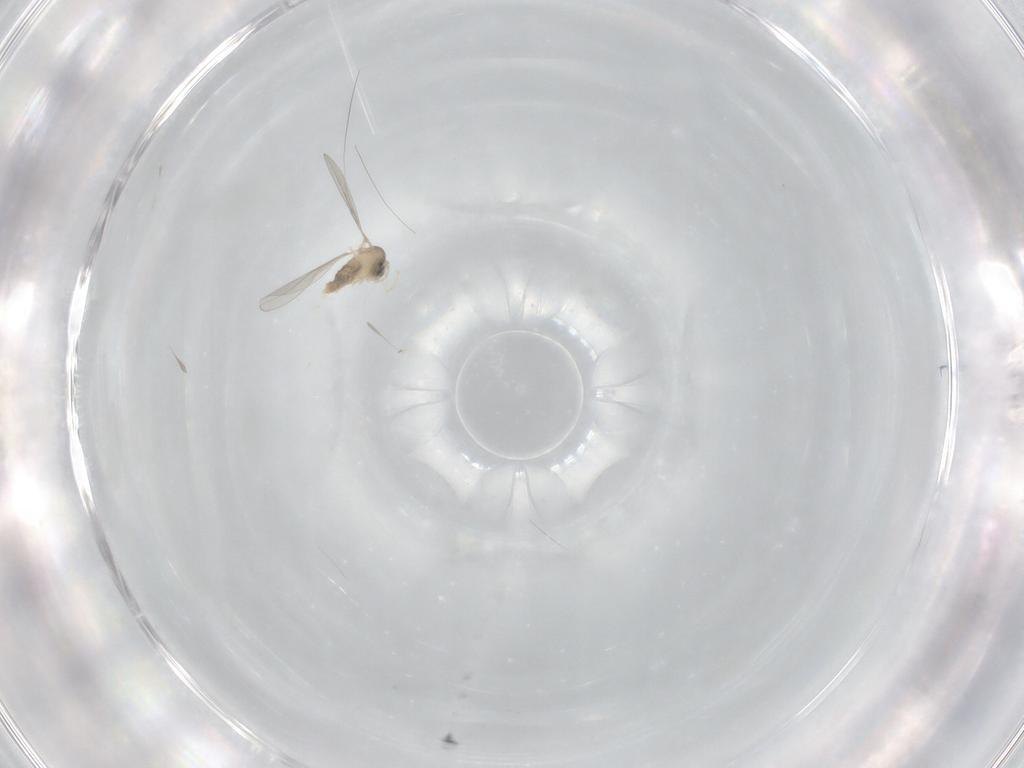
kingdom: Animalia
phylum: Arthropoda
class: Insecta
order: Diptera
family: Cecidomyiidae
